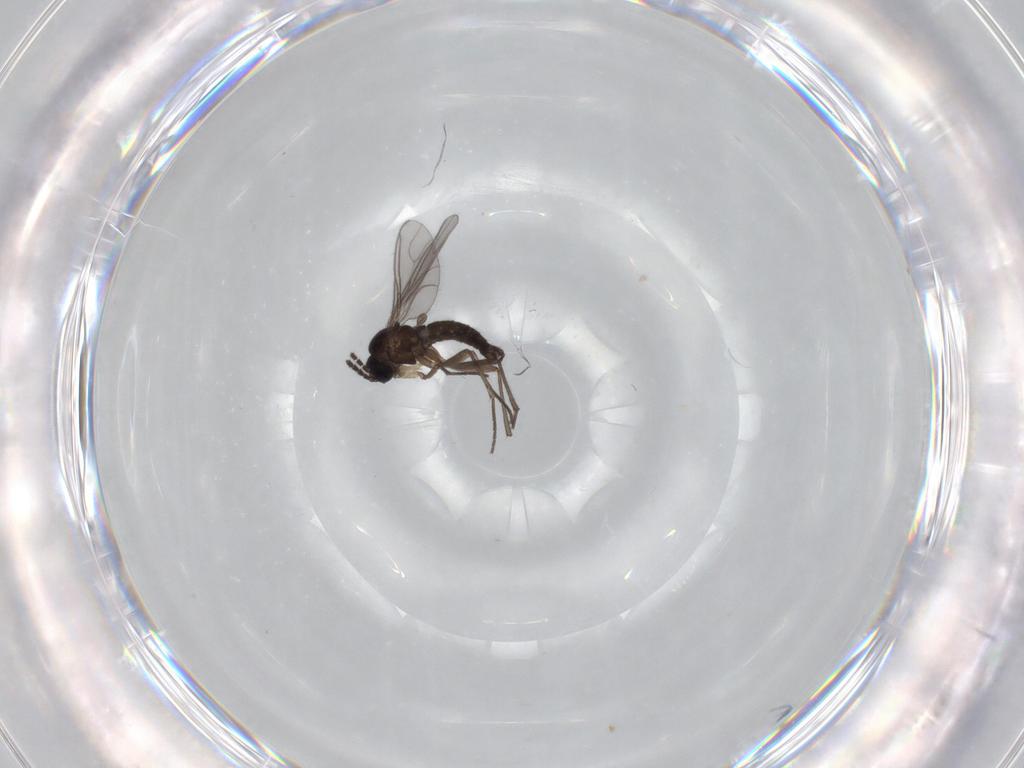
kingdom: Animalia
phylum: Arthropoda
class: Insecta
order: Diptera
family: Sciaridae
